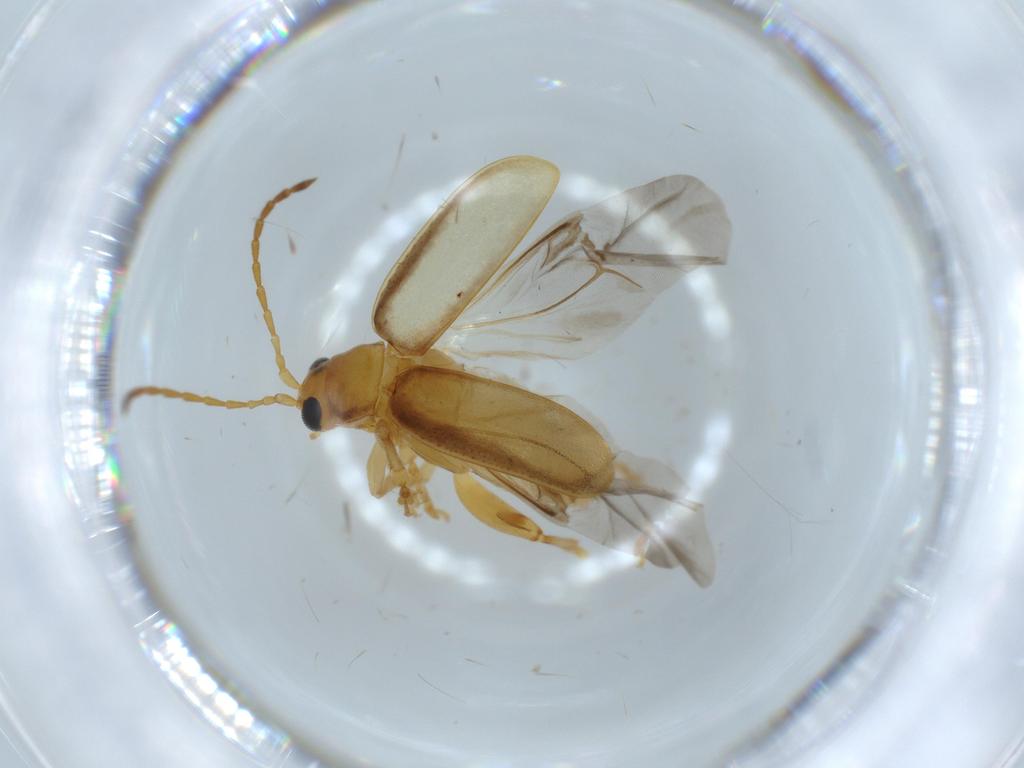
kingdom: Animalia
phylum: Arthropoda
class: Insecta
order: Coleoptera
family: Chrysomelidae
